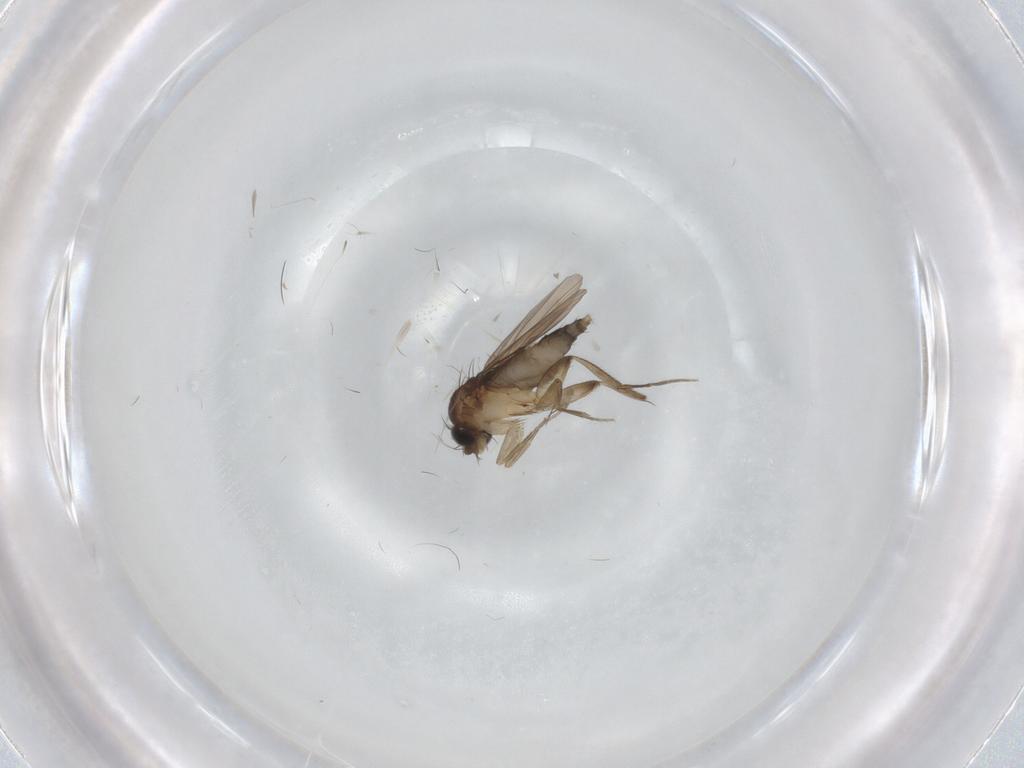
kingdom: Animalia
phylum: Arthropoda
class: Insecta
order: Diptera
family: Phoridae
